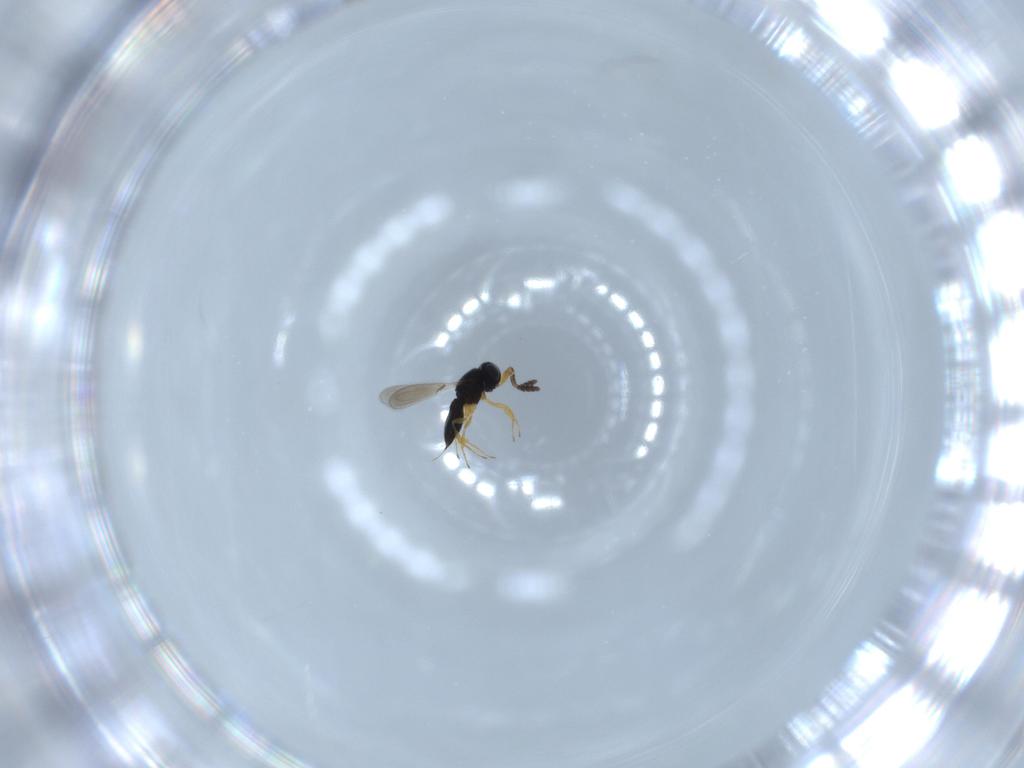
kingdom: Animalia
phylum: Arthropoda
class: Insecta
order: Hymenoptera
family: Scelionidae
